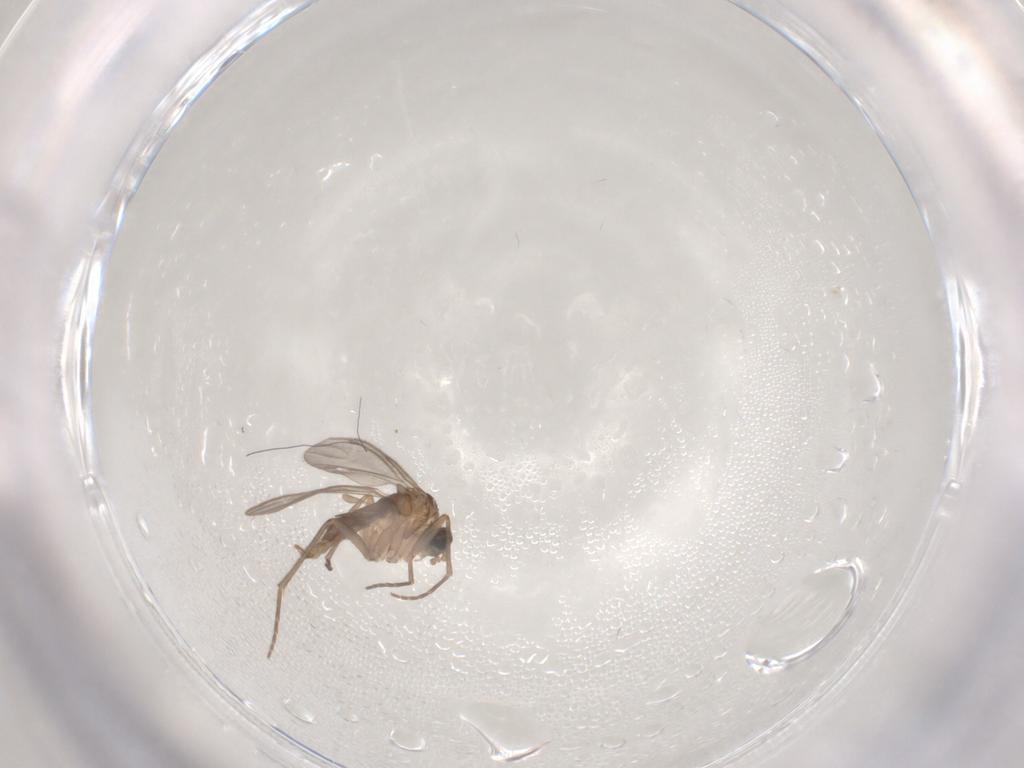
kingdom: Animalia
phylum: Arthropoda
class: Insecta
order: Diptera
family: Sciaridae
